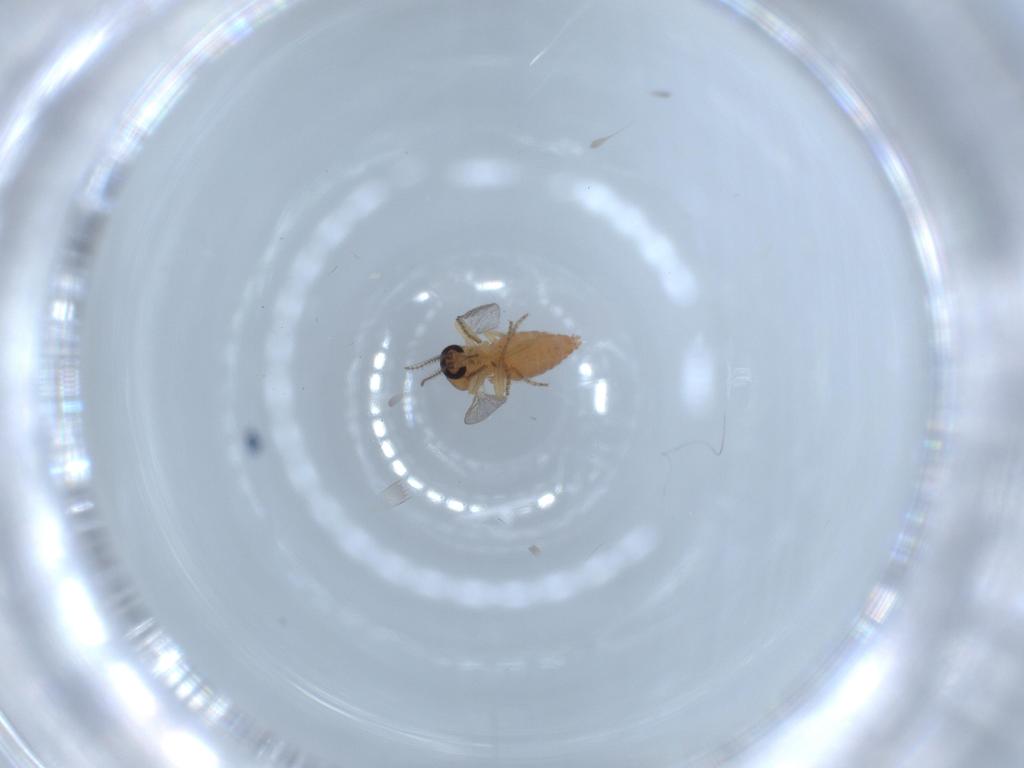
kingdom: Animalia
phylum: Arthropoda
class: Insecta
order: Diptera
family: Ceratopogonidae
